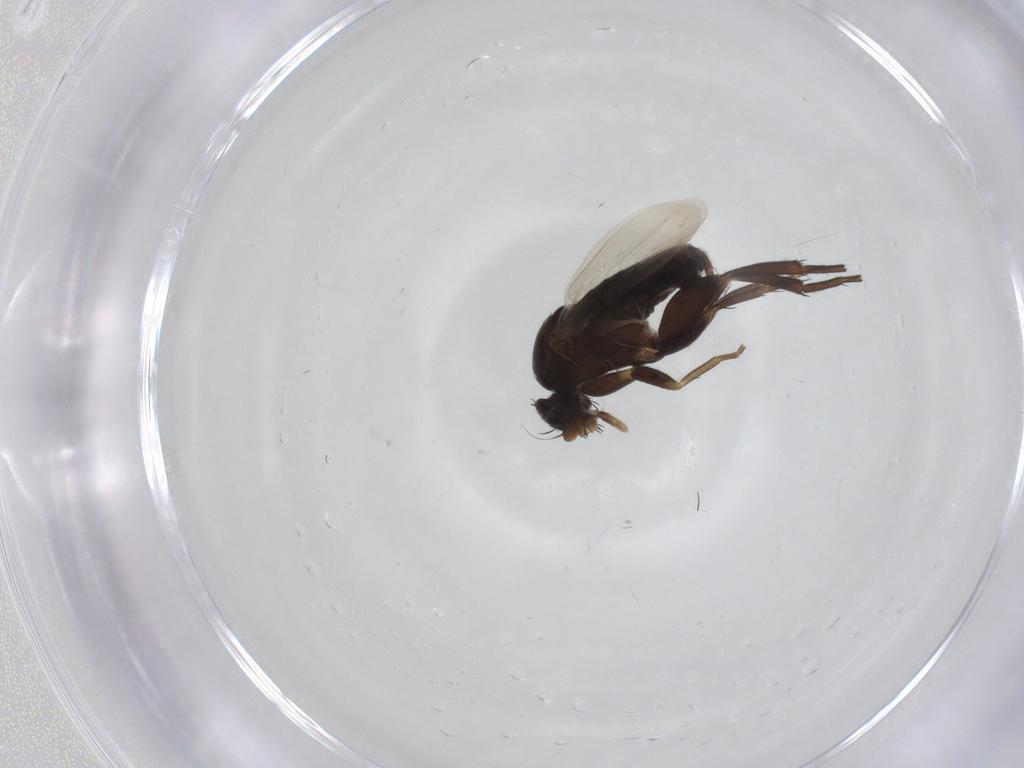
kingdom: Animalia
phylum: Arthropoda
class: Insecta
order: Diptera
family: Phoridae
